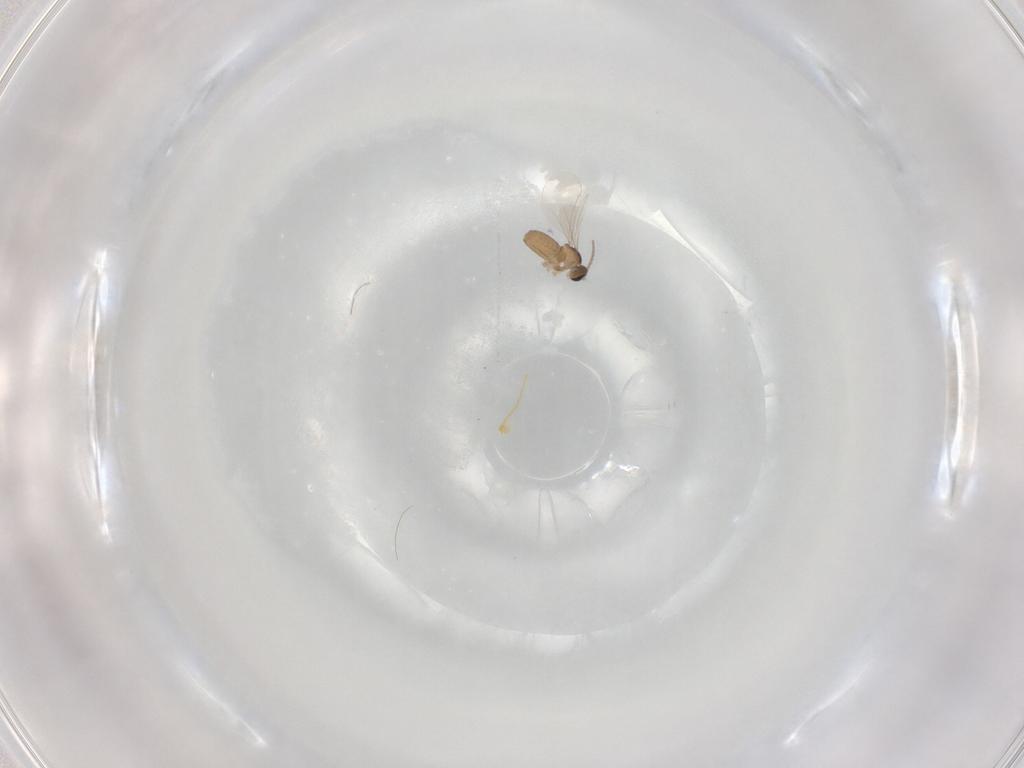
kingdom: Animalia
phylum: Arthropoda
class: Insecta
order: Diptera
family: Cecidomyiidae
